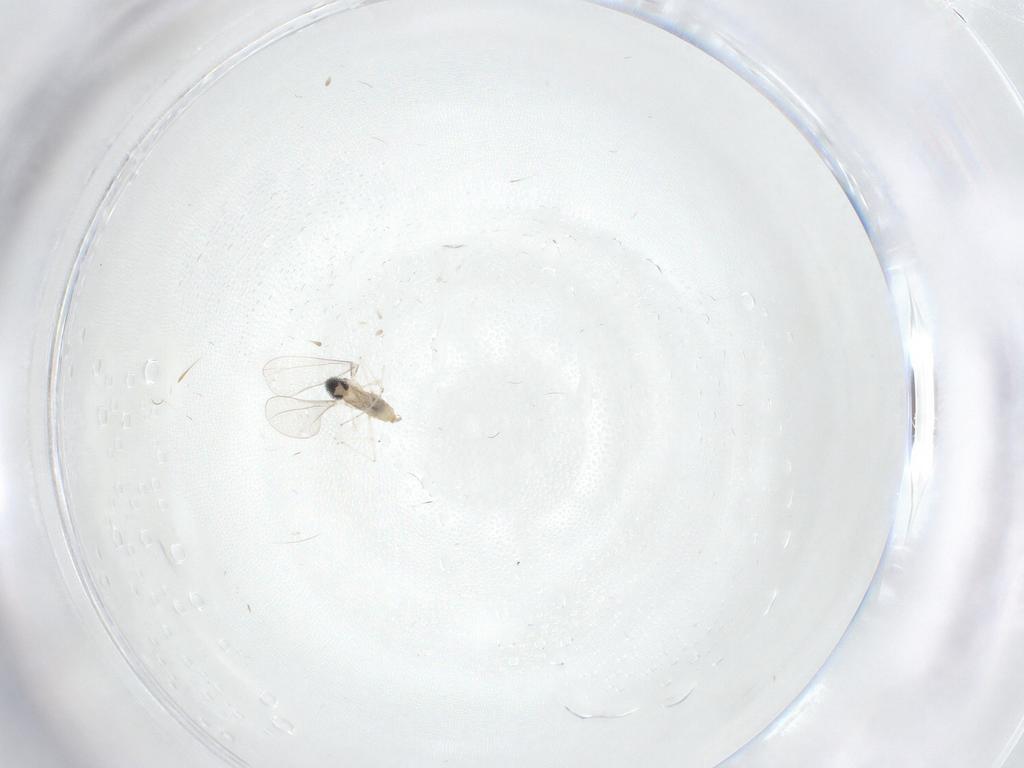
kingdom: Animalia
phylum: Arthropoda
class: Insecta
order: Diptera
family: Cecidomyiidae
